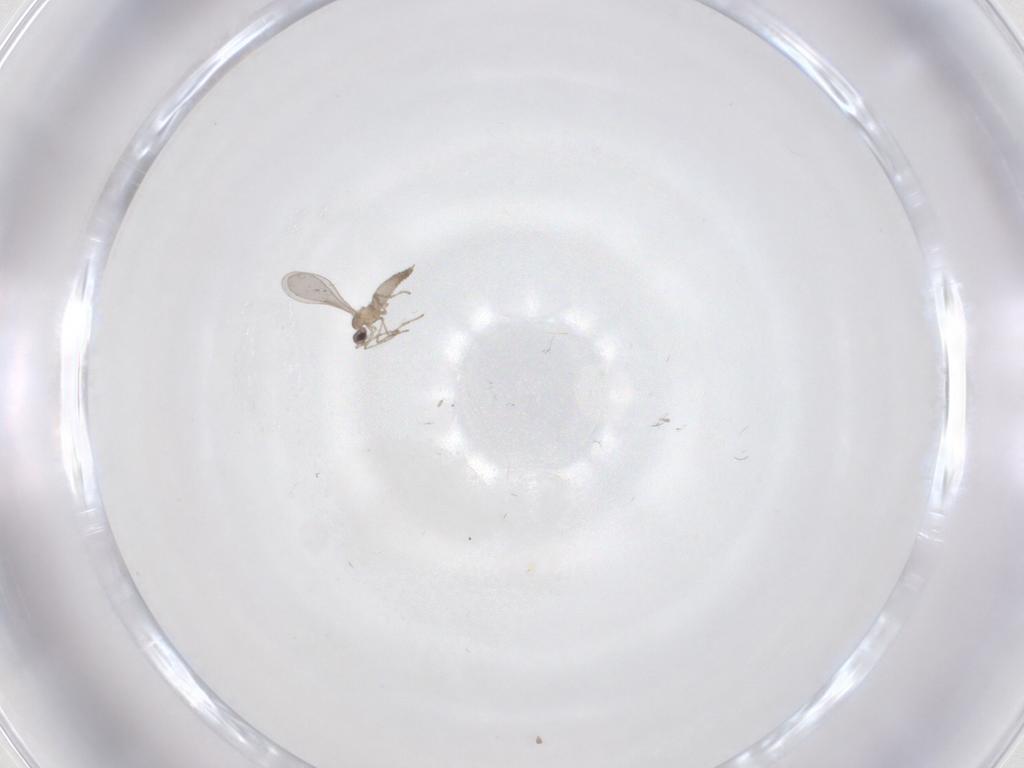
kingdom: Animalia
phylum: Arthropoda
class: Insecta
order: Diptera
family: Cecidomyiidae
